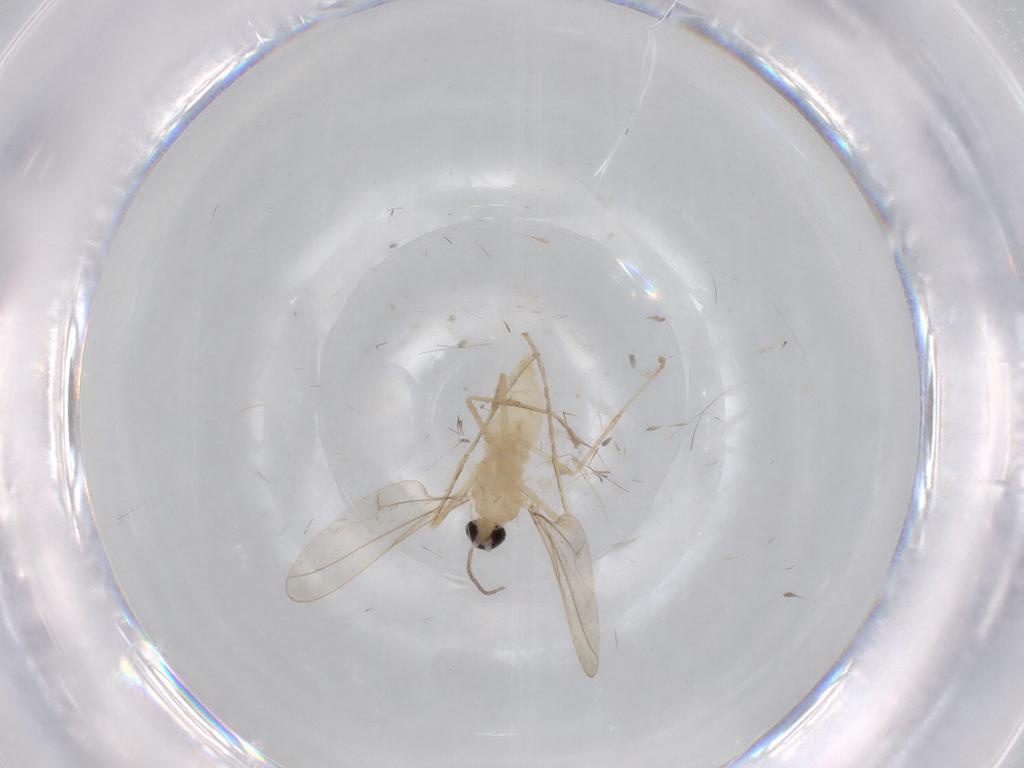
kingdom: Animalia
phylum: Arthropoda
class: Insecta
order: Diptera
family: Cecidomyiidae
